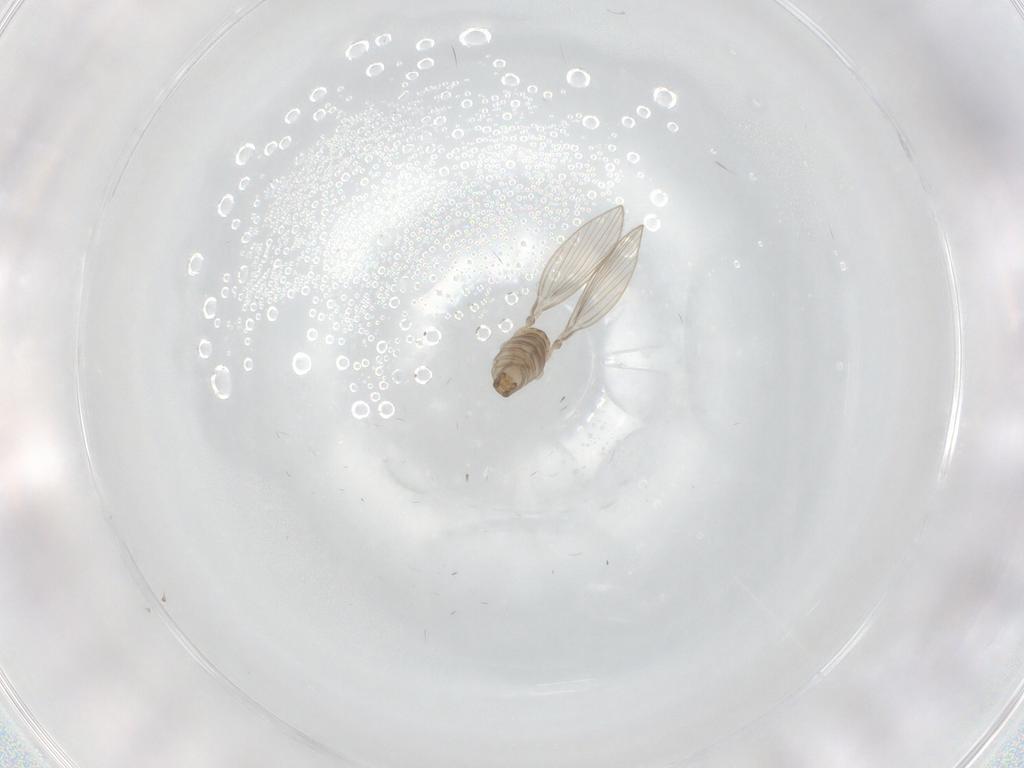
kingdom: Animalia
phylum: Arthropoda
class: Insecta
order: Diptera
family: Psychodidae
